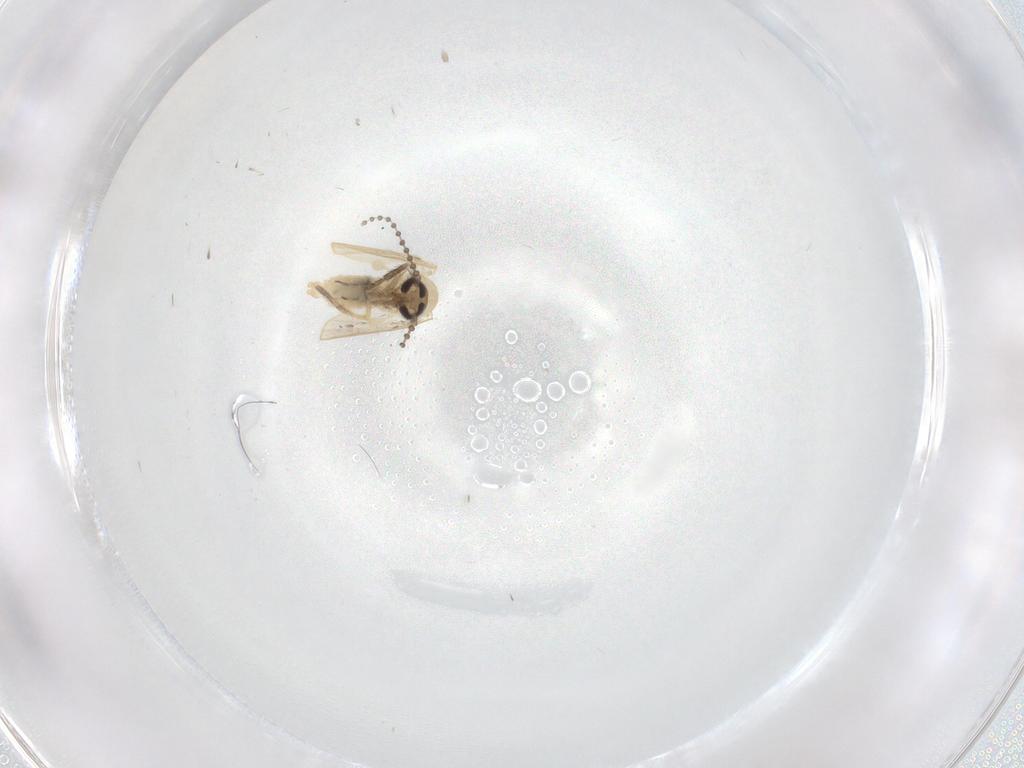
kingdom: Animalia
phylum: Arthropoda
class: Insecta
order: Diptera
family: Psychodidae
